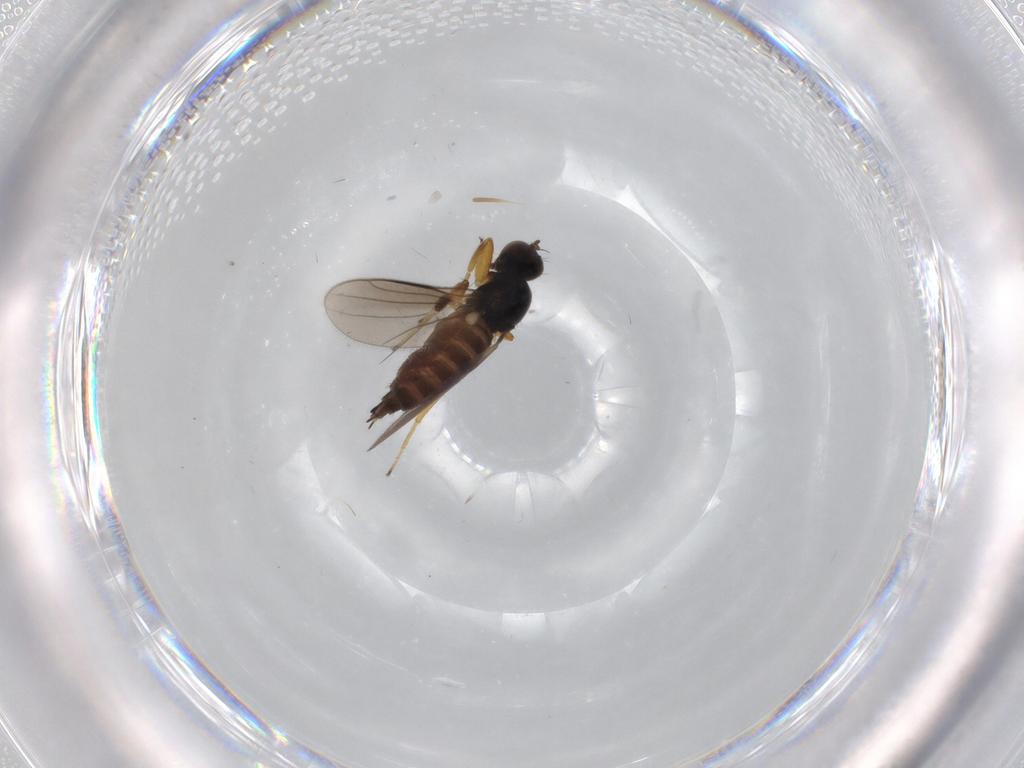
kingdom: Animalia
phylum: Arthropoda
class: Insecta
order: Diptera
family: Hybotidae
